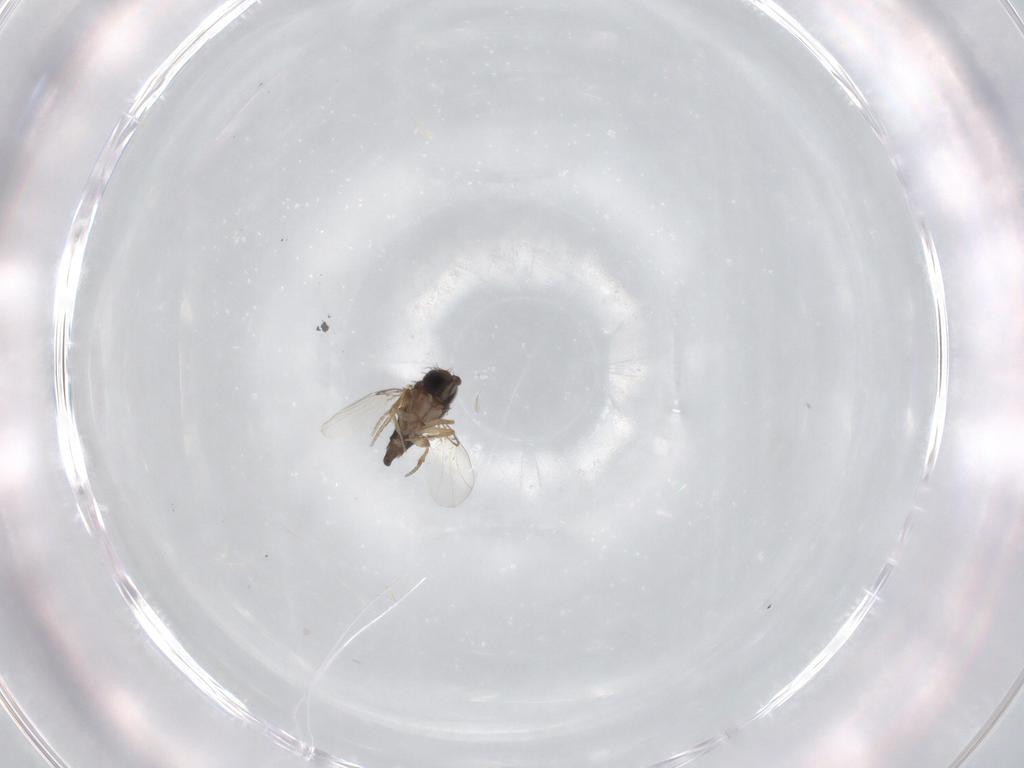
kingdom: Animalia
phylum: Arthropoda
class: Insecta
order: Diptera
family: Phoridae
